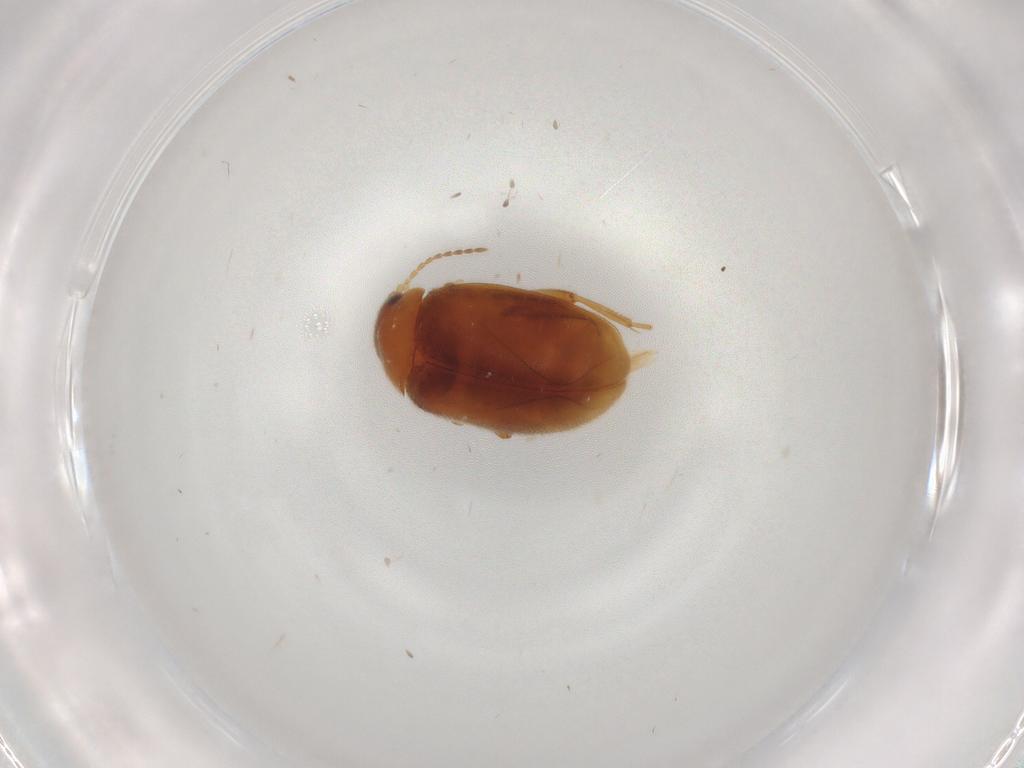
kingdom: Animalia
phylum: Arthropoda
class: Insecta
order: Coleoptera
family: Scirtidae
